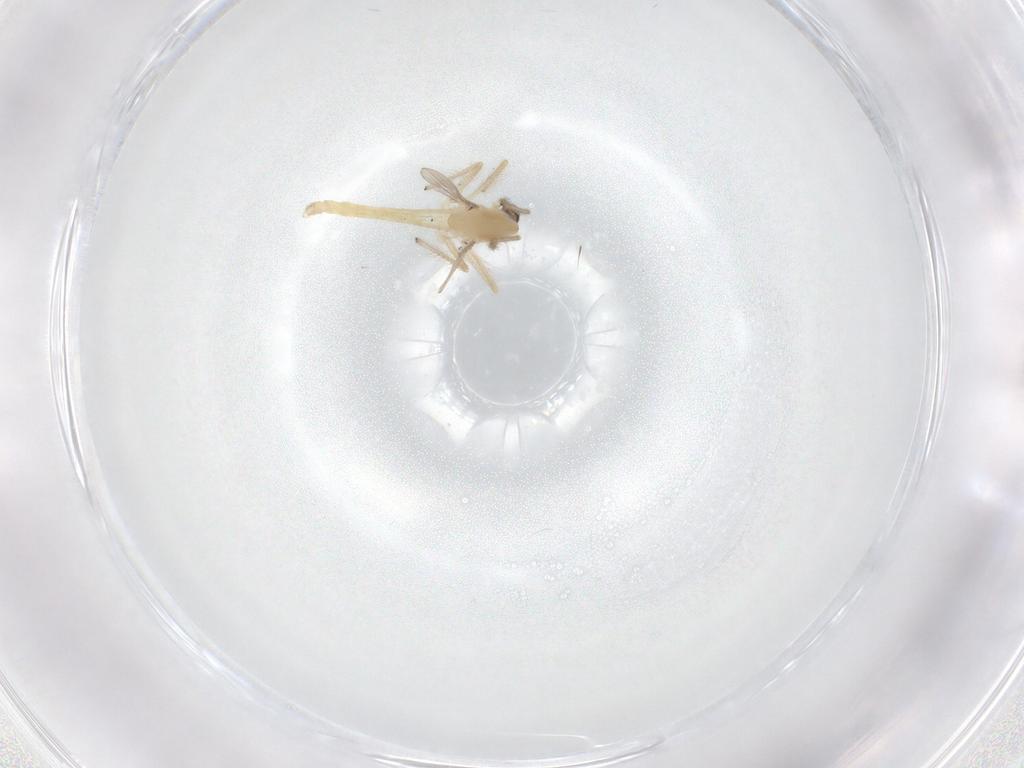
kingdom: Animalia
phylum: Arthropoda
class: Insecta
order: Diptera
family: Chironomidae
